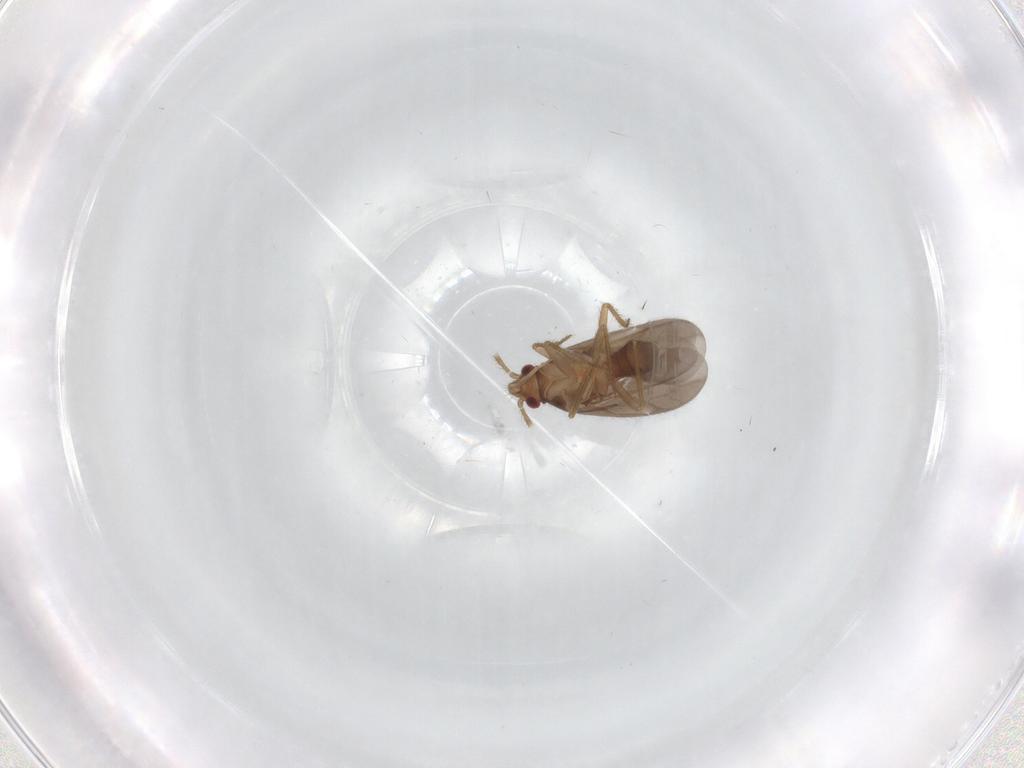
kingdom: Animalia
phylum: Arthropoda
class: Insecta
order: Hemiptera
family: Ceratocombidae
